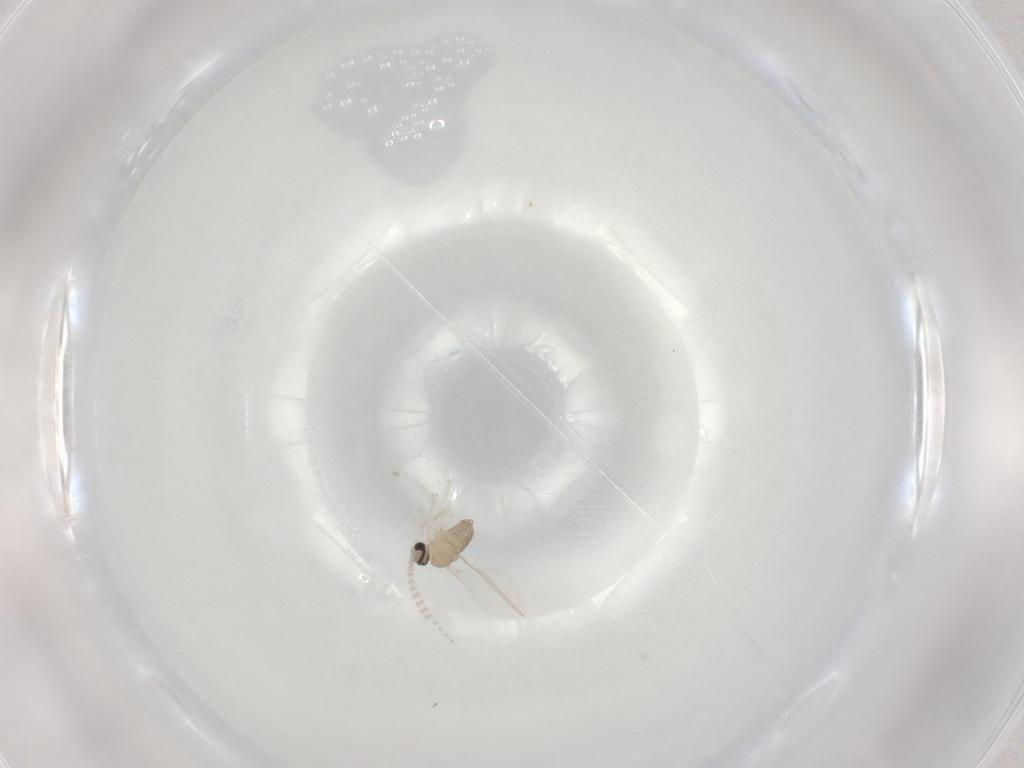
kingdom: Animalia
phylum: Arthropoda
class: Insecta
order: Diptera
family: Cecidomyiidae
